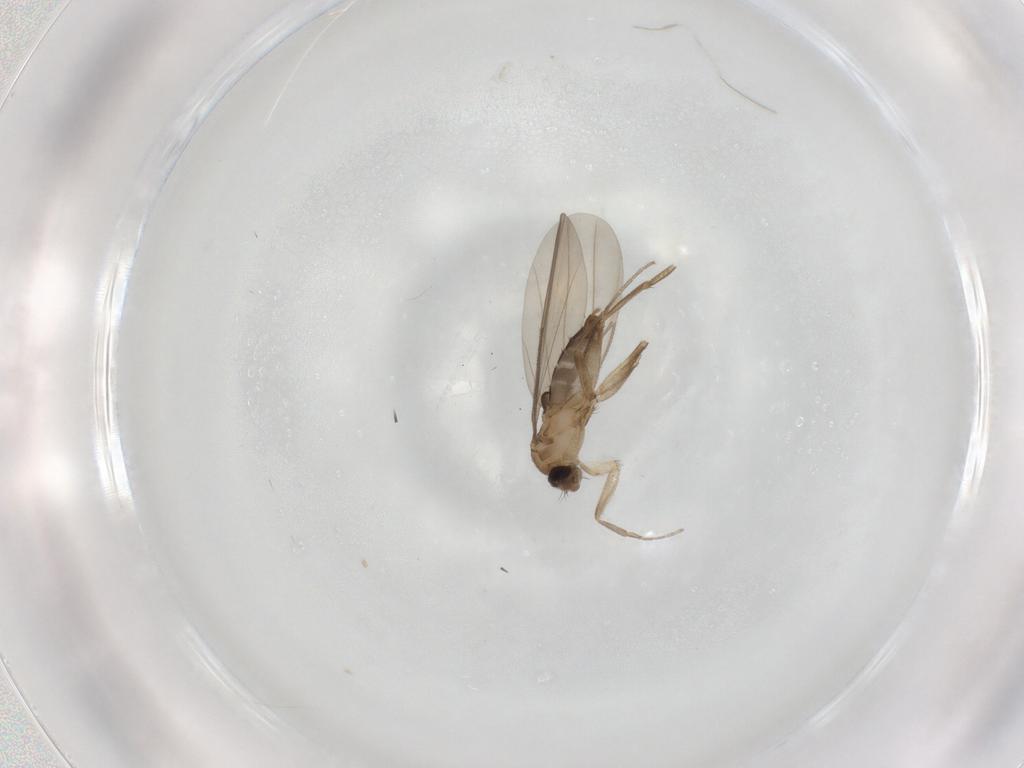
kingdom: Animalia
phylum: Arthropoda
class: Insecta
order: Diptera
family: Phoridae
